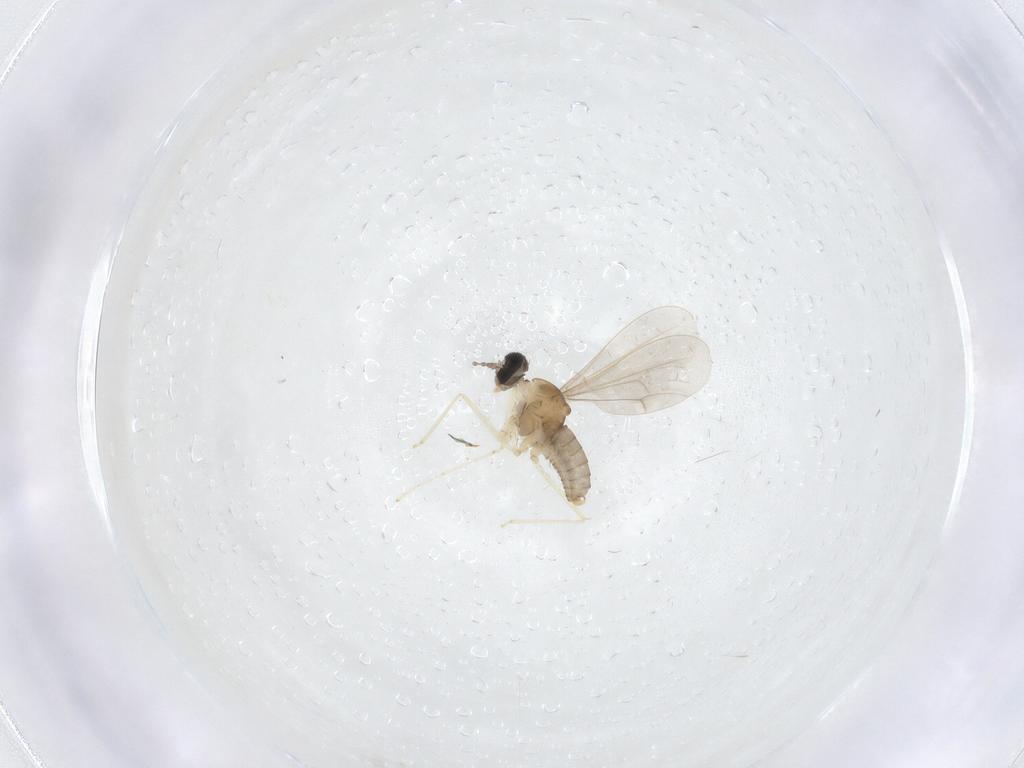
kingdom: Animalia
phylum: Arthropoda
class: Insecta
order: Diptera
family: Cecidomyiidae
